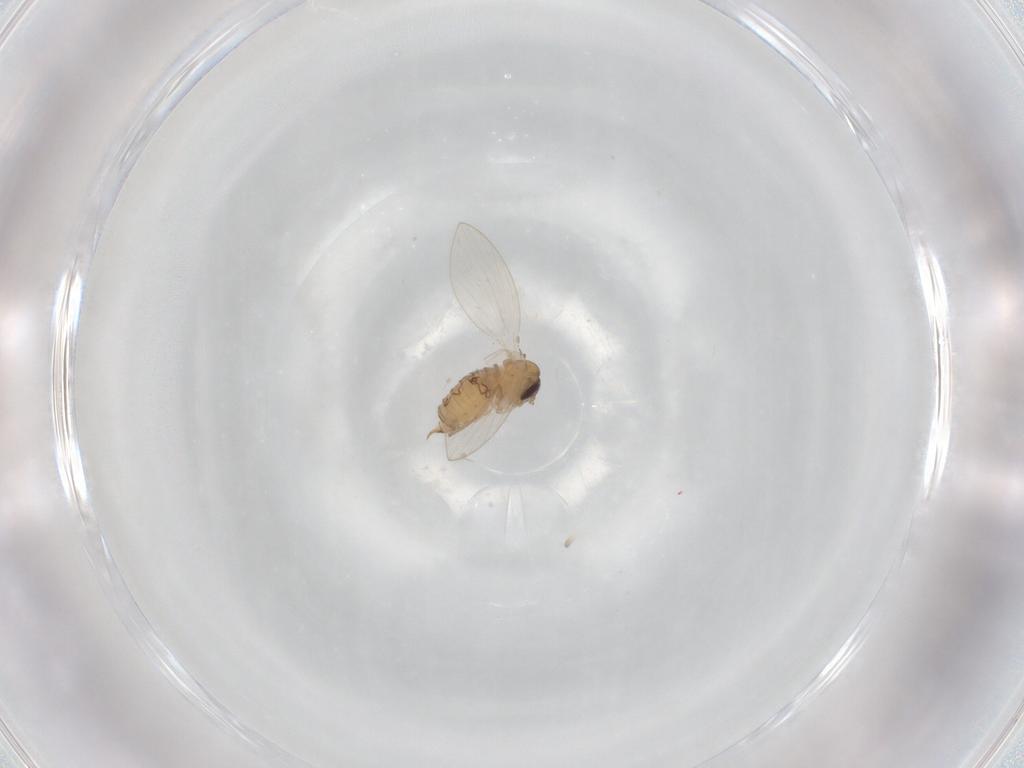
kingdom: Animalia
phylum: Arthropoda
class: Insecta
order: Diptera
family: Psychodidae
